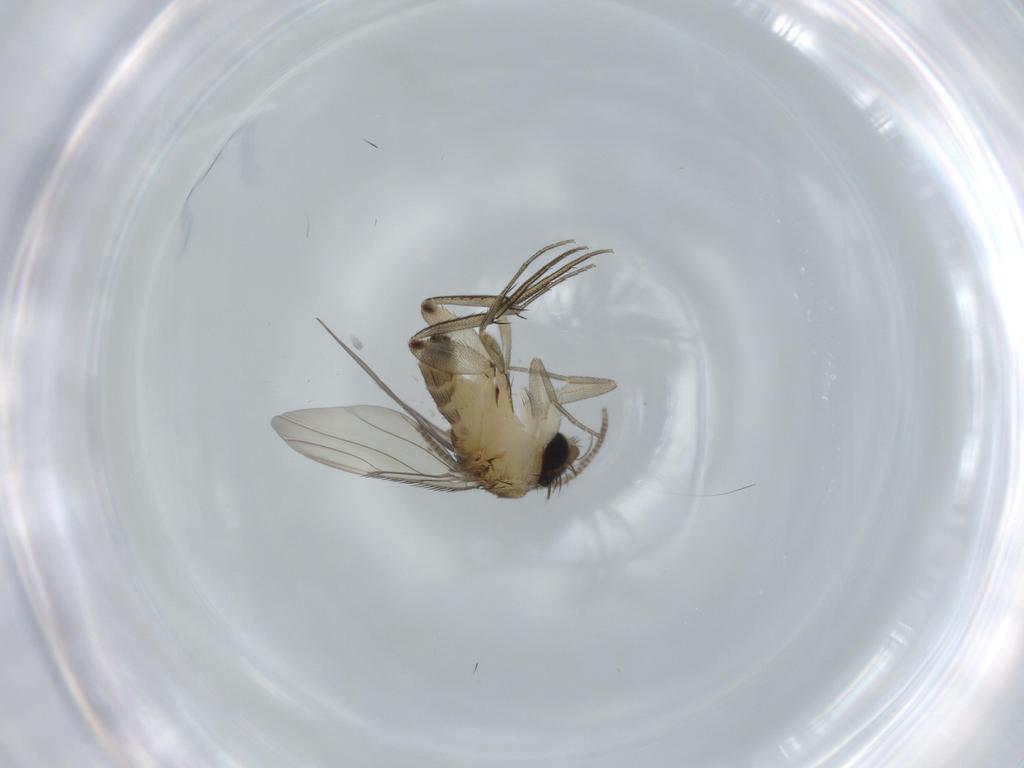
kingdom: Animalia
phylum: Arthropoda
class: Insecta
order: Diptera
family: Phoridae
